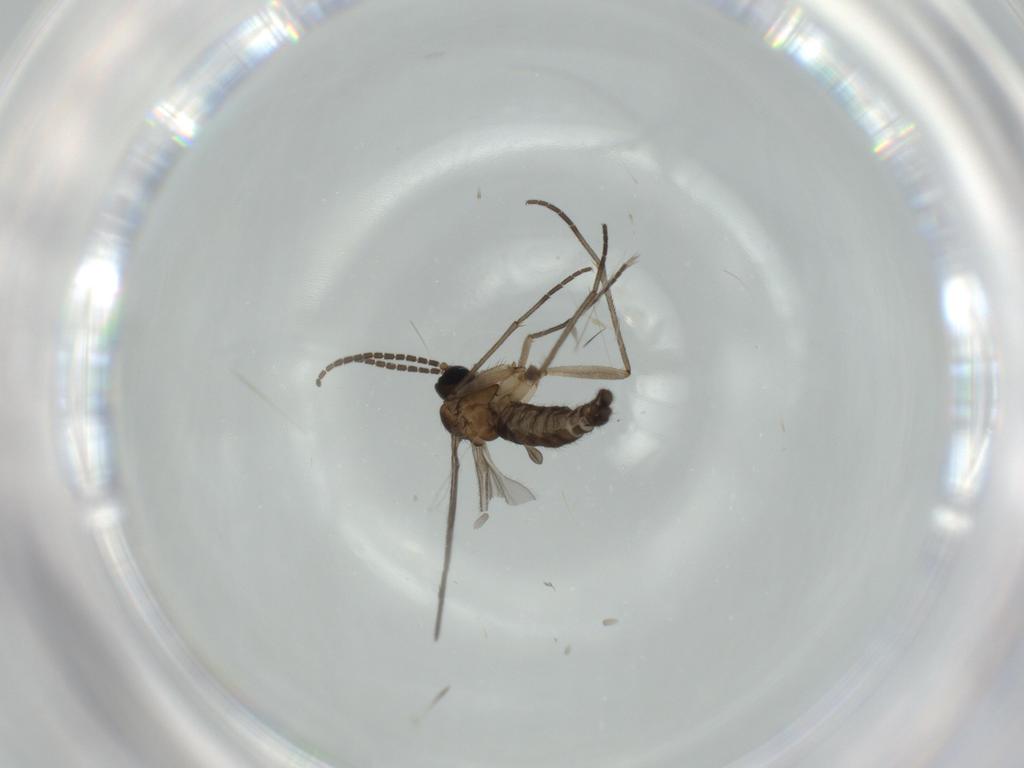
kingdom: Animalia
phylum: Arthropoda
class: Insecta
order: Diptera
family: Sciaridae
